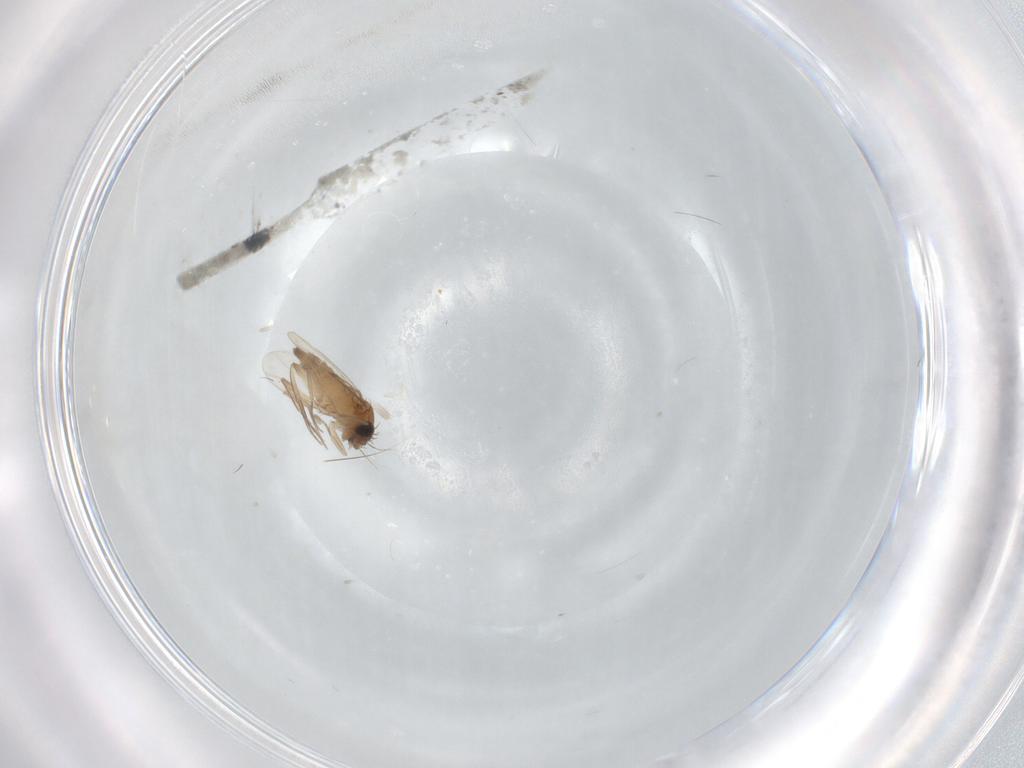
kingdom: Animalia
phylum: Arthropoda
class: Insecta
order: Diptera
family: Phoridae
